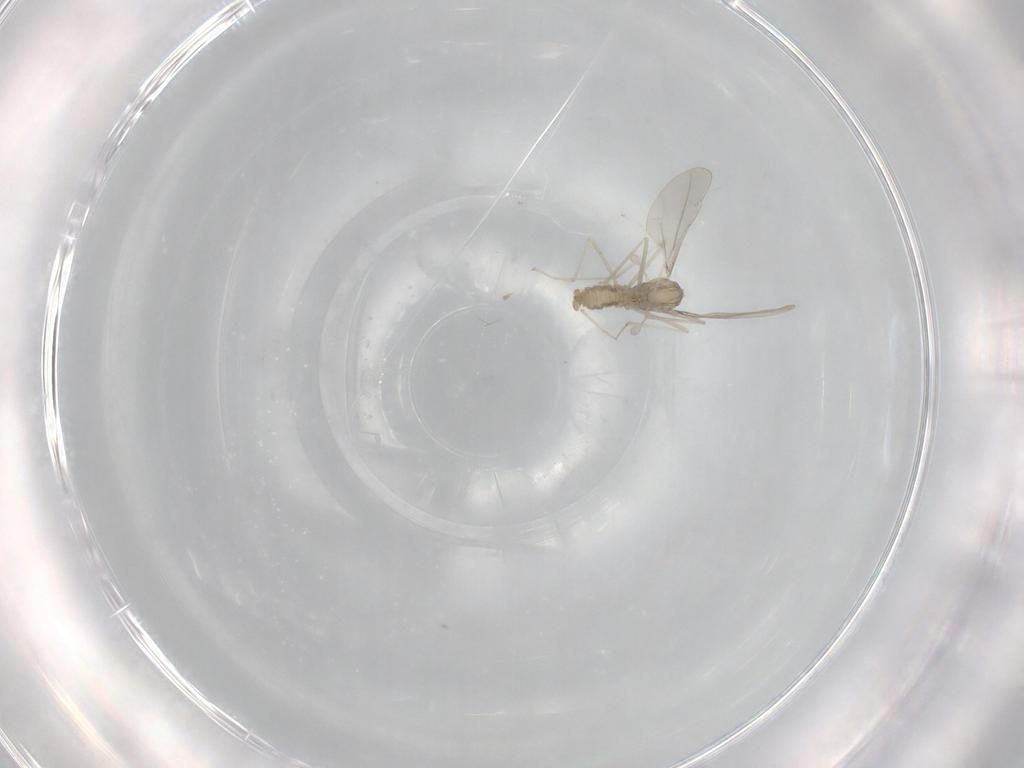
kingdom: Animalia
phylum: Arthropoda
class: Insecta
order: Diptera
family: Cecidomyiidae
